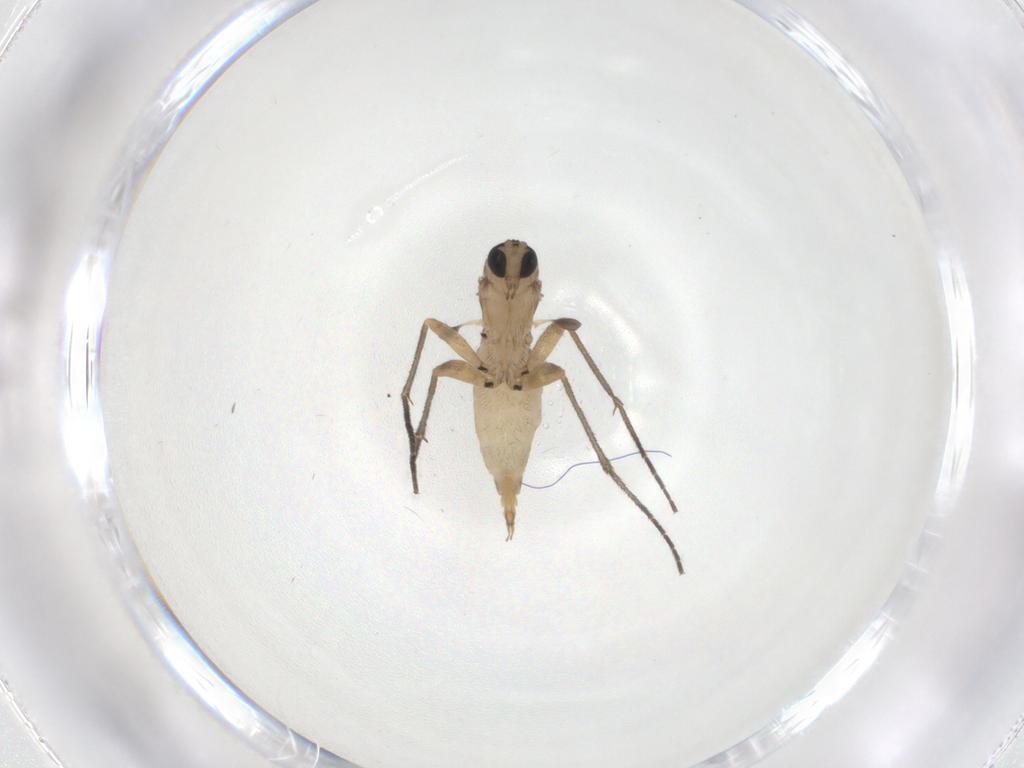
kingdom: Animalia
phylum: Arthropoda
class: Insecta
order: Diptera
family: Sciaridae
